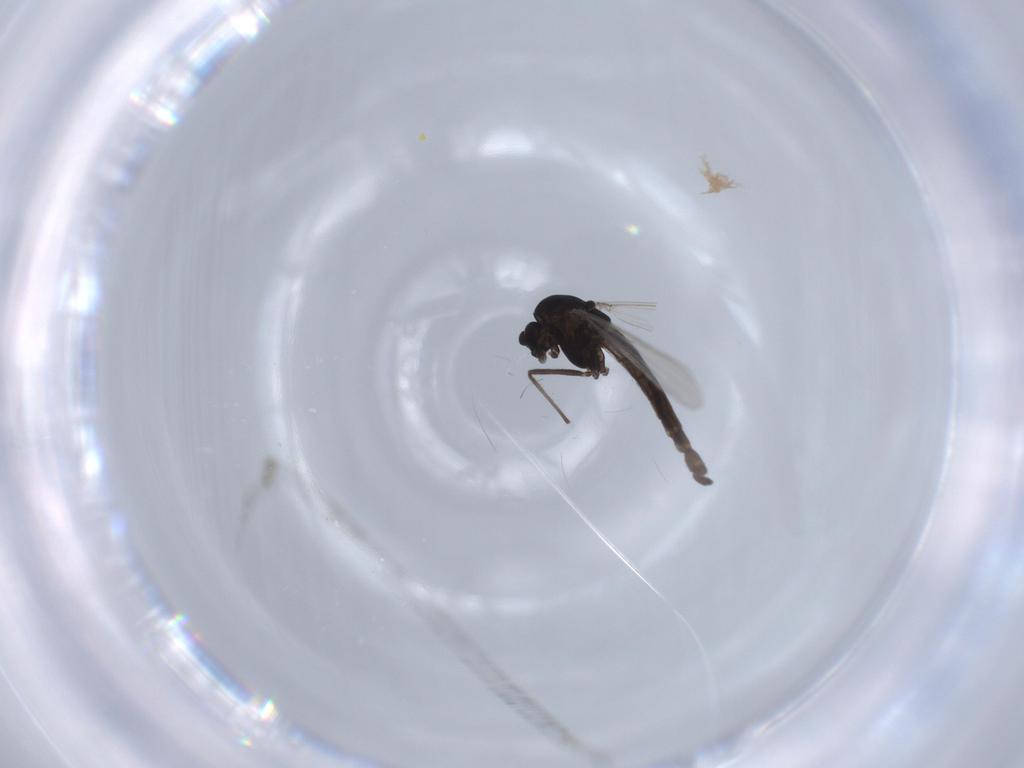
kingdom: Animalia
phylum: Arthropoda
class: Insecta
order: Diptera
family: Chironomidae
